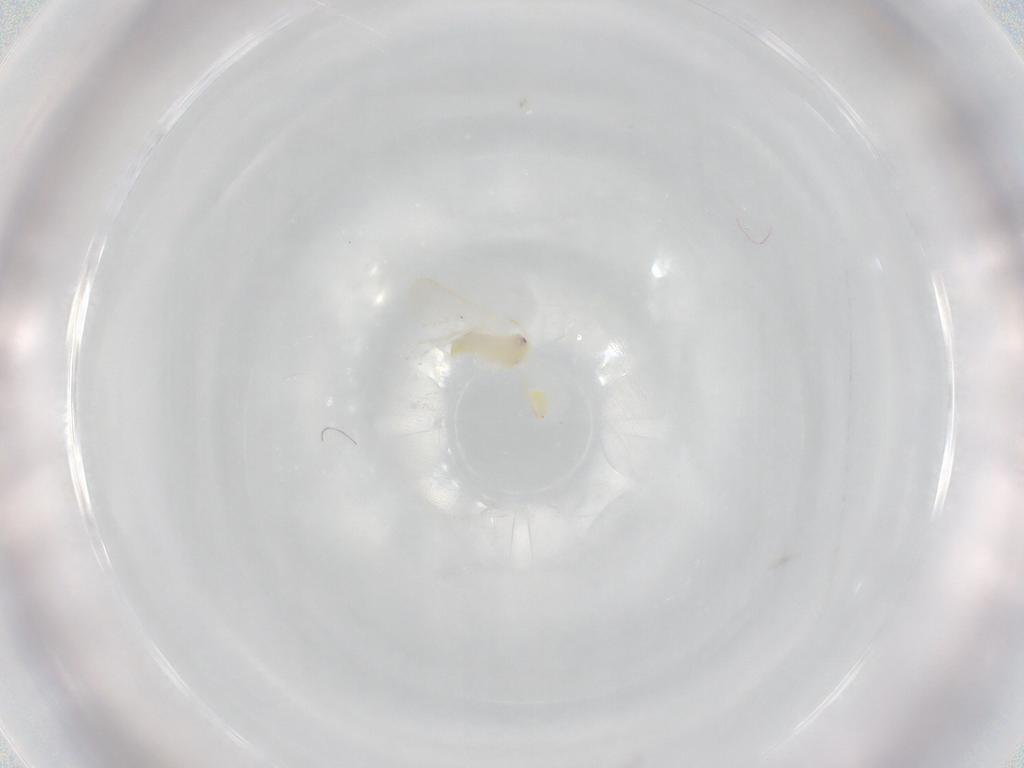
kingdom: Animalia
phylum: Arthropoda
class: Insecta
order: Hemiptera
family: Aleyrodidae
